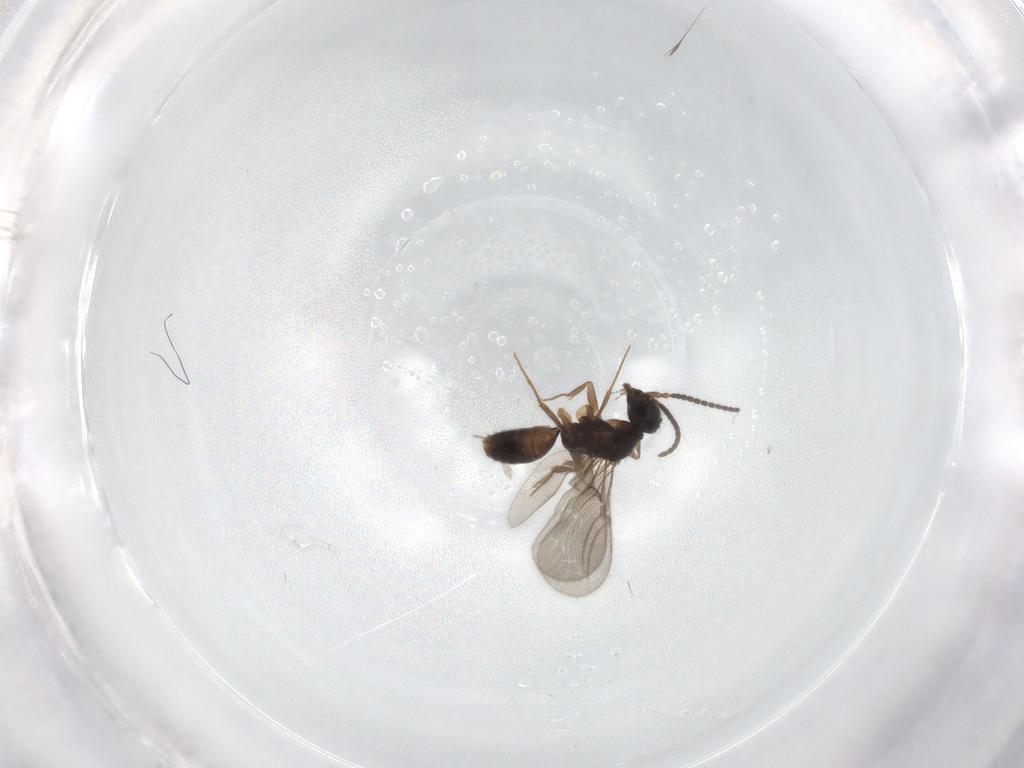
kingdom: Animalia
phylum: Arthropoda
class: Insecta
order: Hymenoptera
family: Bethylidae
